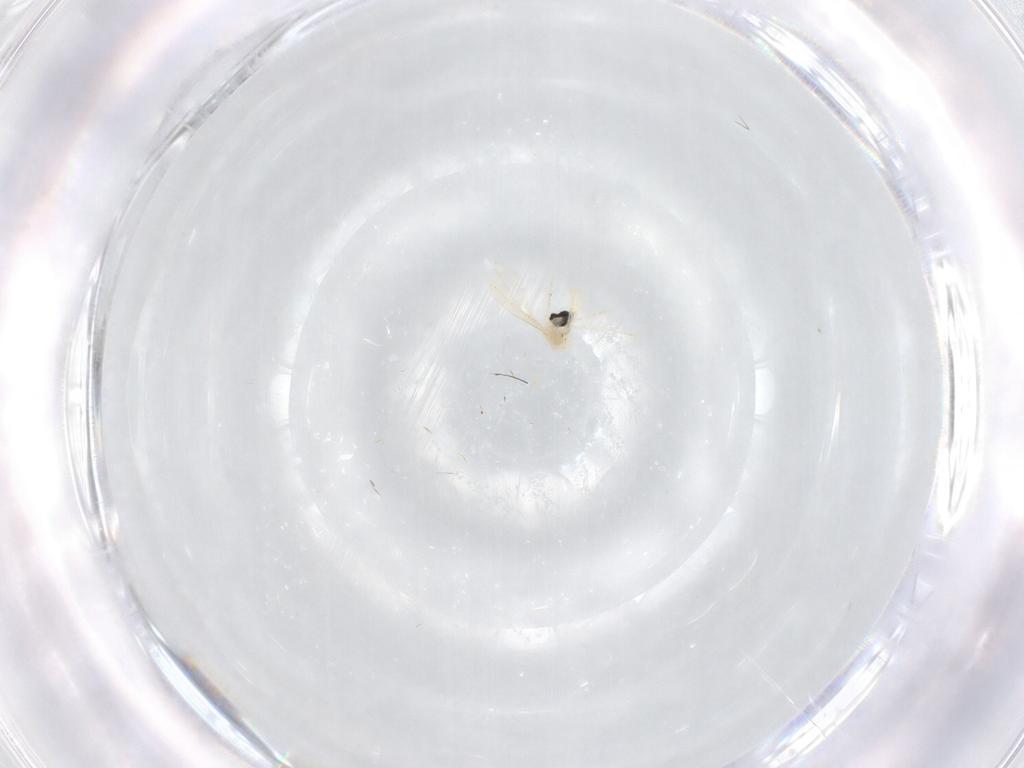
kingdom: Animalia
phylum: Arthropoda
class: Insecta
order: Diptera
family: Cecidomyiidae
